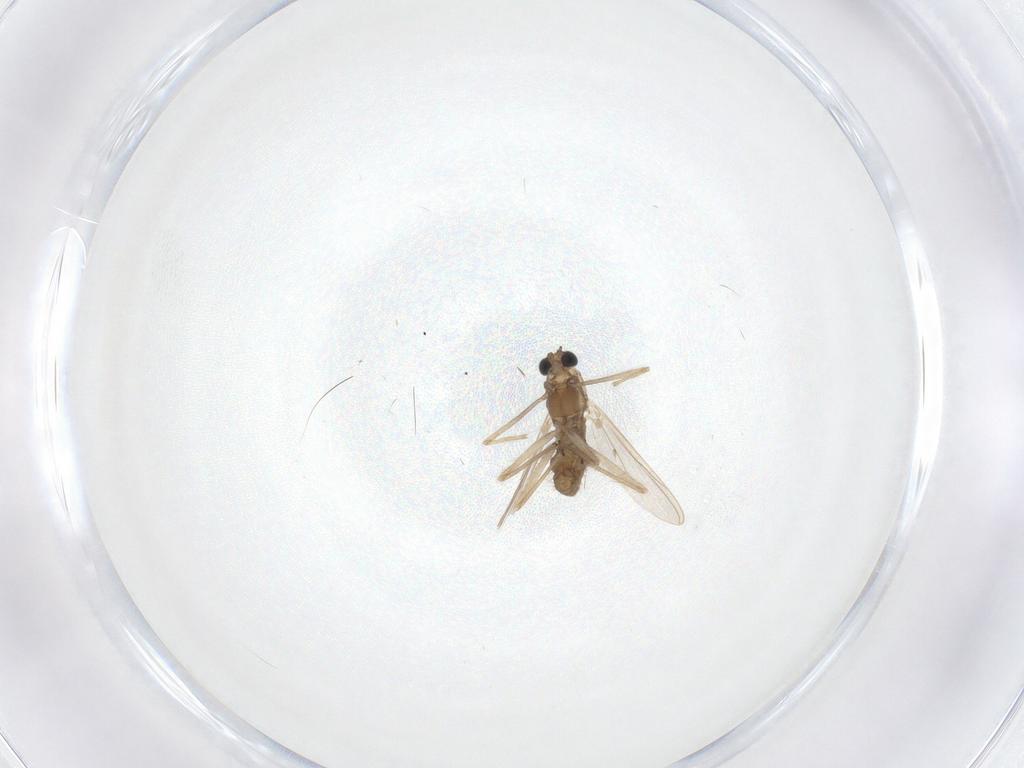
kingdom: Animalia
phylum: Arthropoda
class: Insecta
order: Diptera
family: Chironomidae
